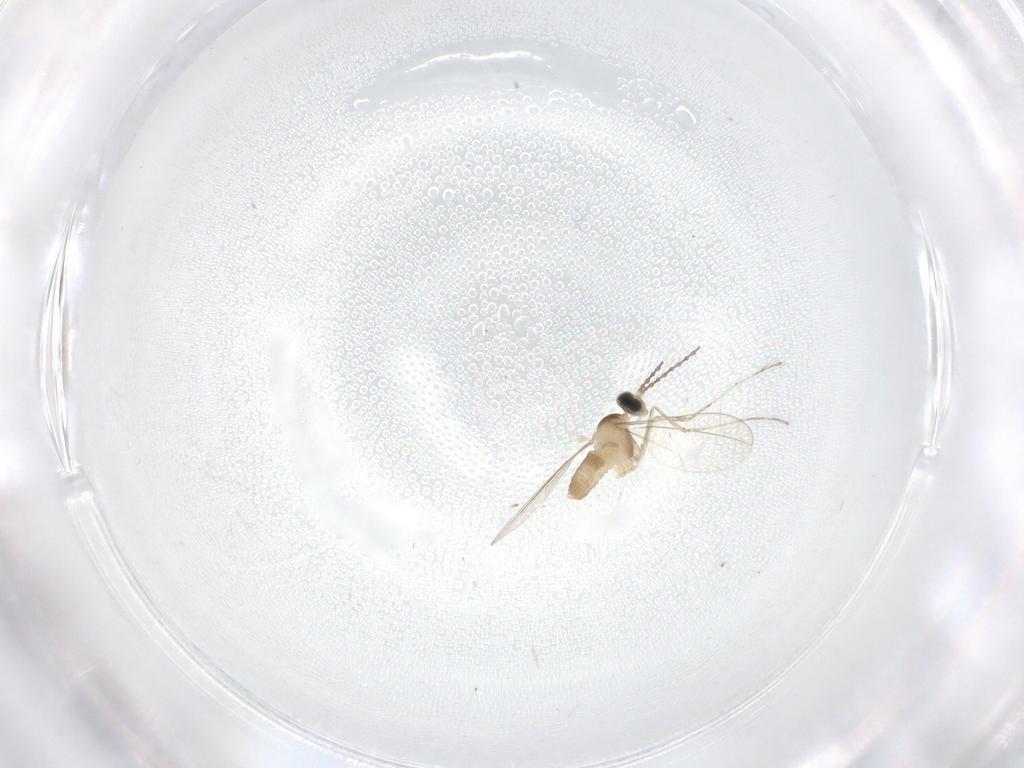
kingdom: Animalia
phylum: Arthropoda
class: Insecta
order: Diptera
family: Cecidomyiidae
